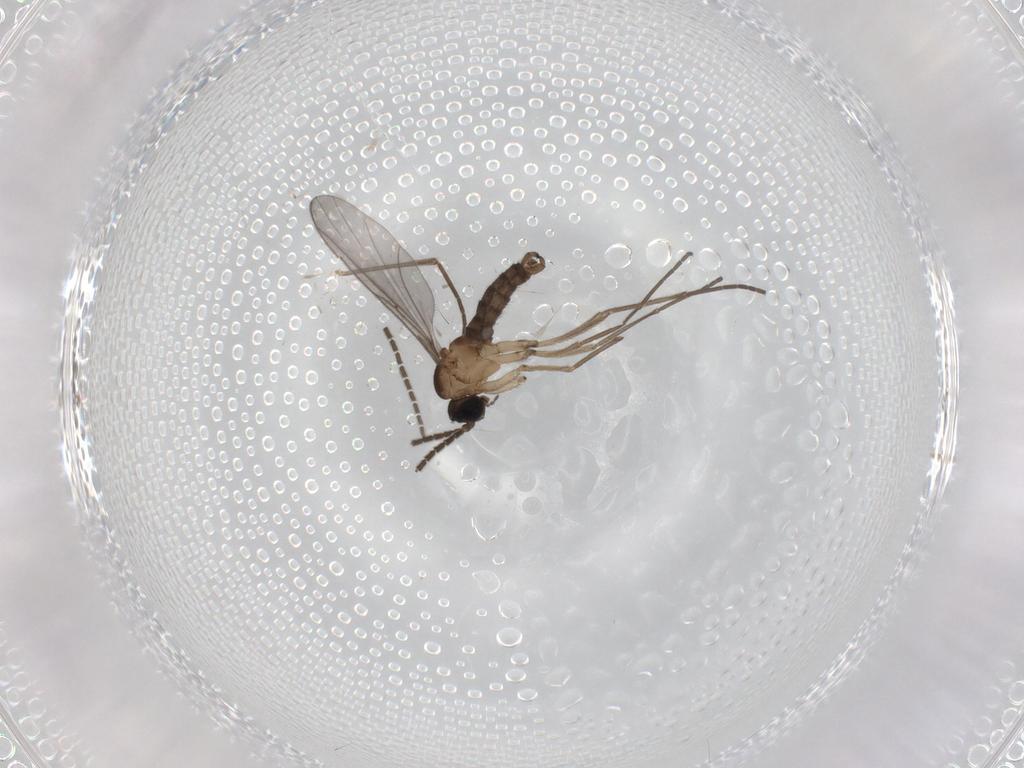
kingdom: Animalia
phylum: Arthropoda
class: Insecta
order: Diptera
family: Sciaridae
